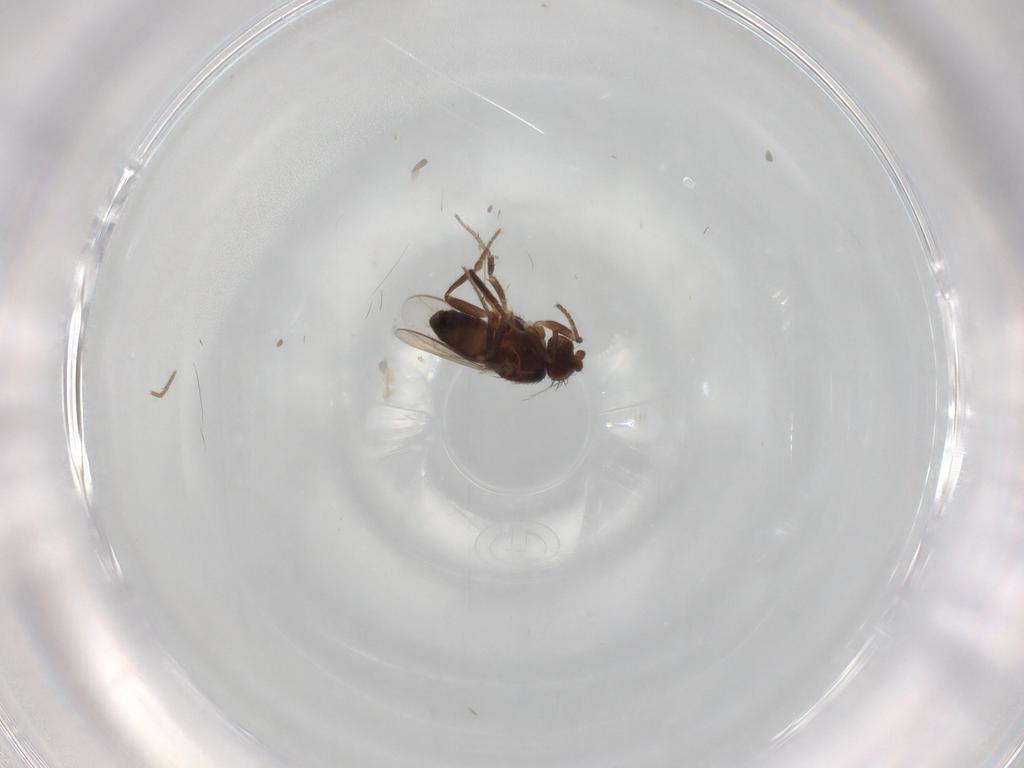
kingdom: Animalia
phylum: Arthropoda
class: Insecta
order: Diptera
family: Sphaeroceridae
